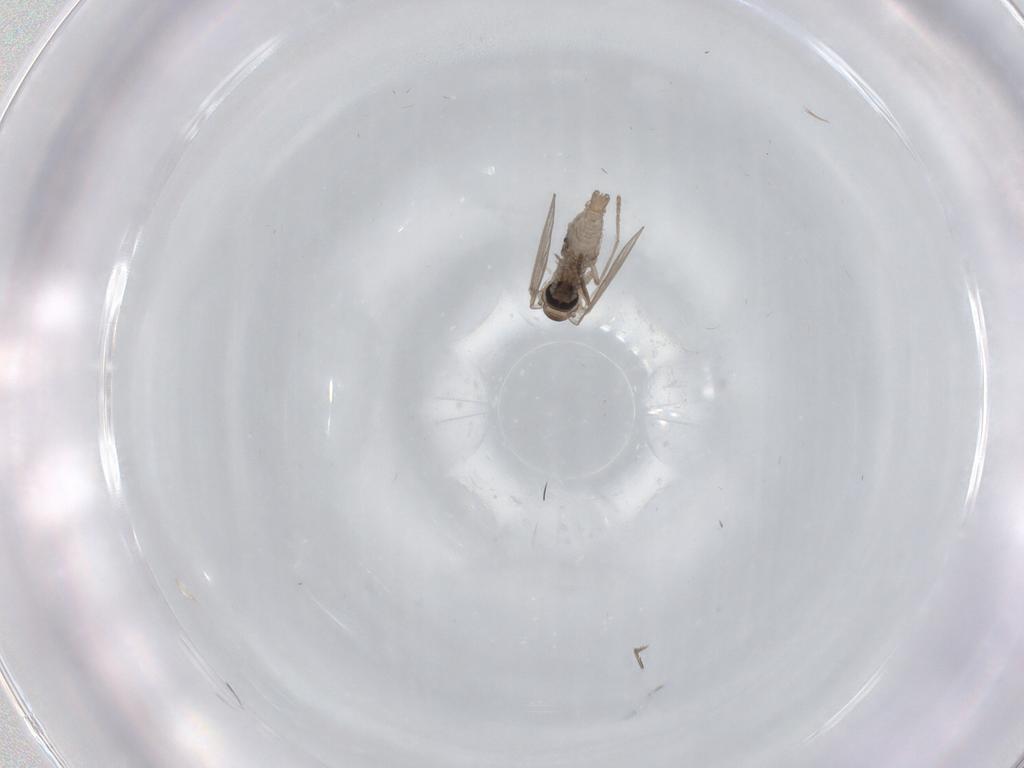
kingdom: Animalia
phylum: Arthropoda
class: Insecta
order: Diptera
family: Psychodidae
